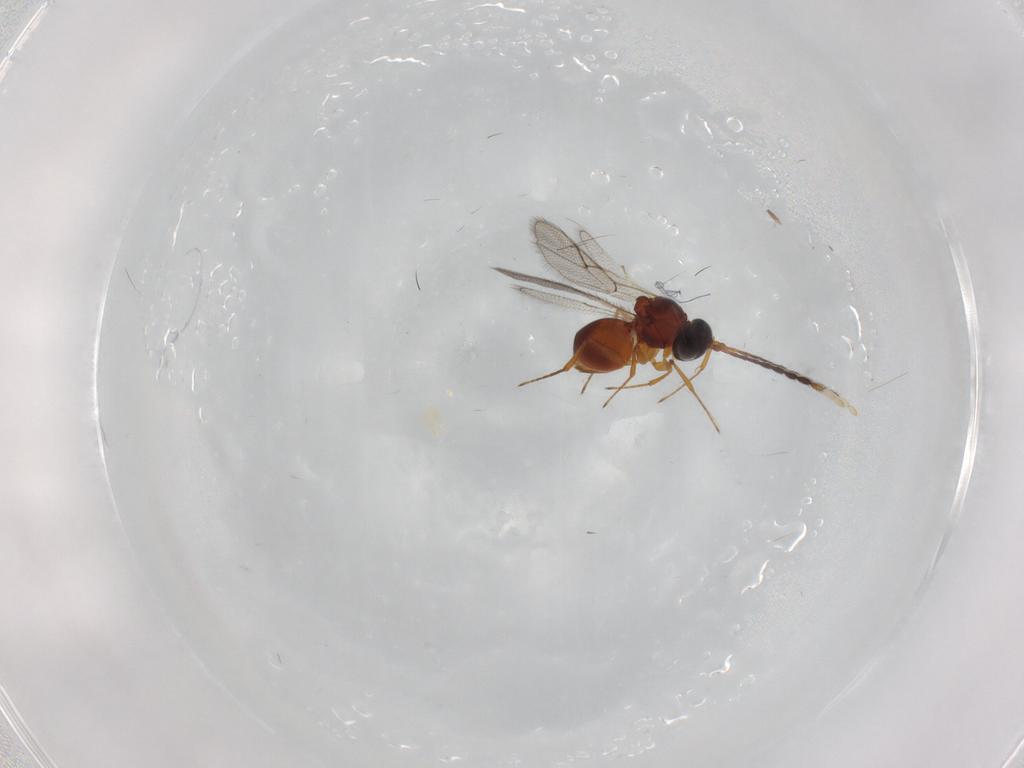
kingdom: Animalia
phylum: Arthropoda
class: Insecta
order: Hymenoptera
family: Figitidae
